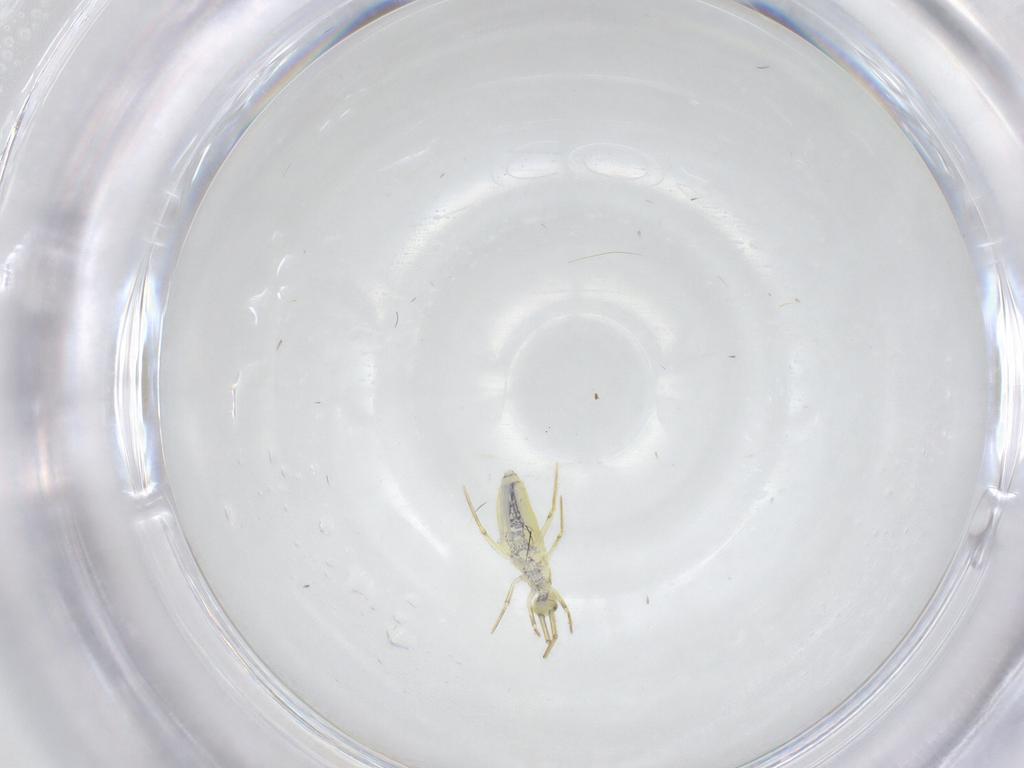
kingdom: Animalia
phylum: Arthropoda
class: Collembola
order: Entomobryomorpha
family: Entomobryidae
